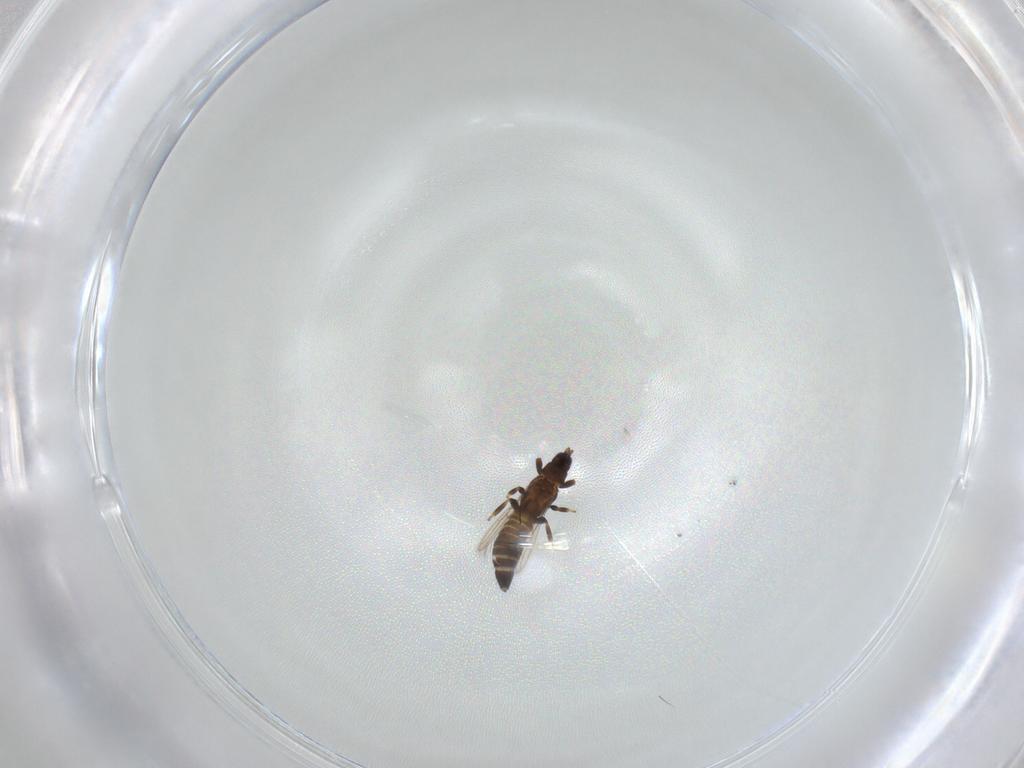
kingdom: Animalia
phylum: Arthropoda
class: Insecta
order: Thysanoptera
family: Melanthripidae
